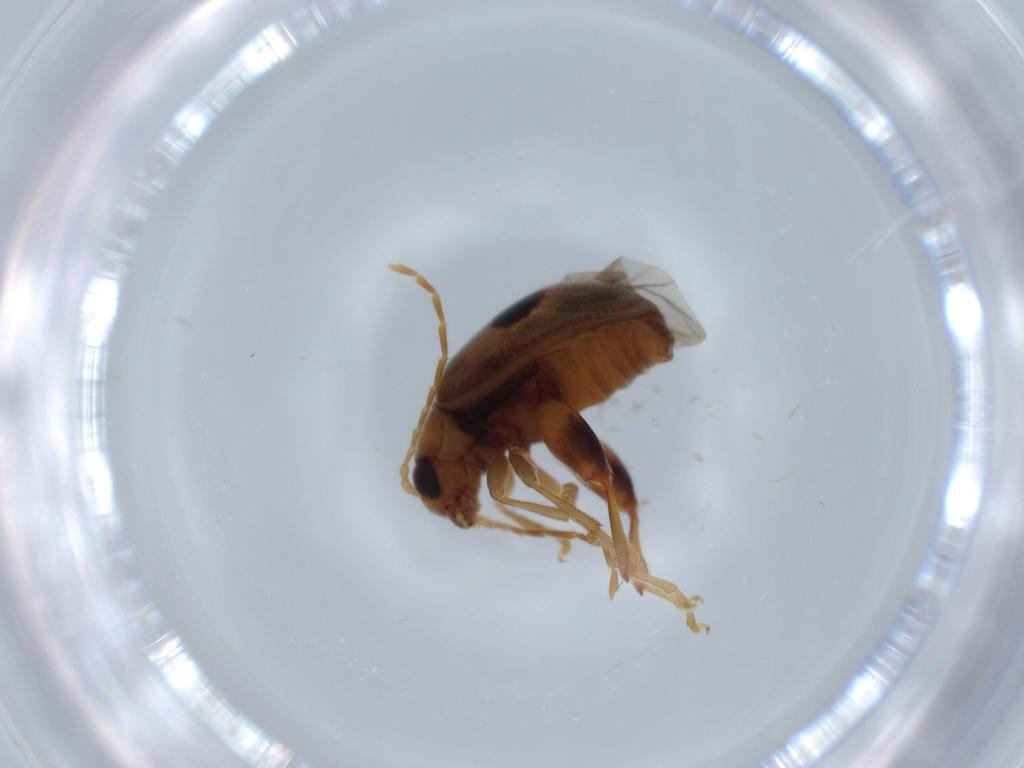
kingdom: Animalia
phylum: Arthropoda
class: Insecta
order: Coleoptera
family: Chrysomelidae
